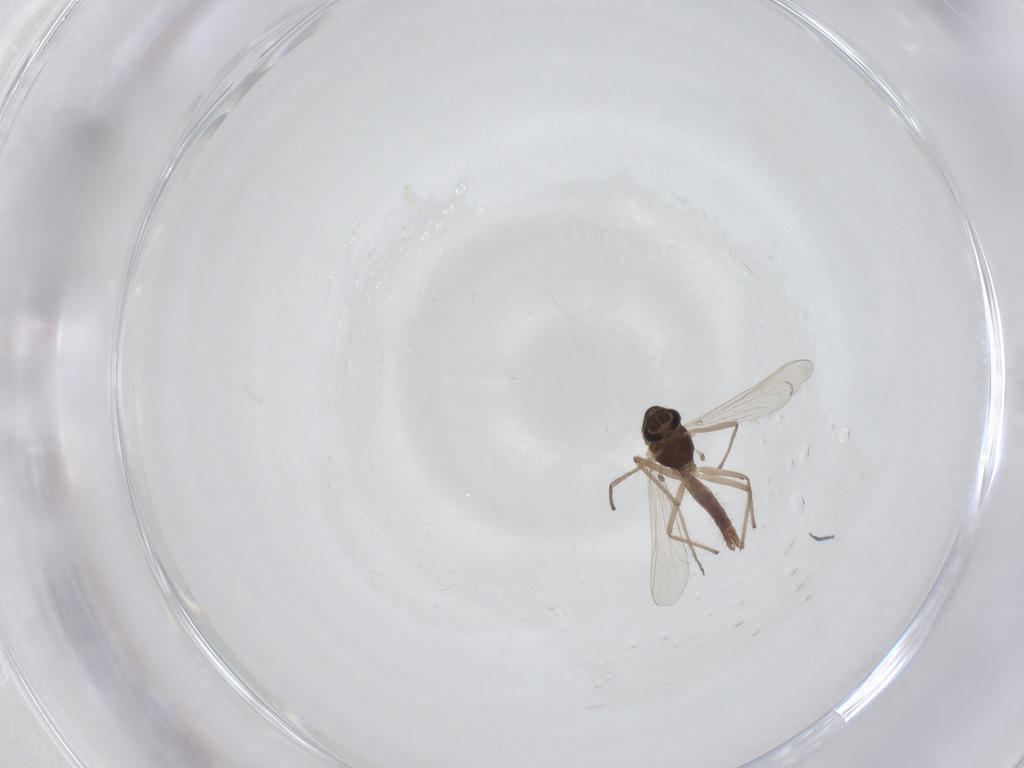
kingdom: Animalia
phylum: Arthropoda
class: Insecta
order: Diptera
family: Chironomidae
